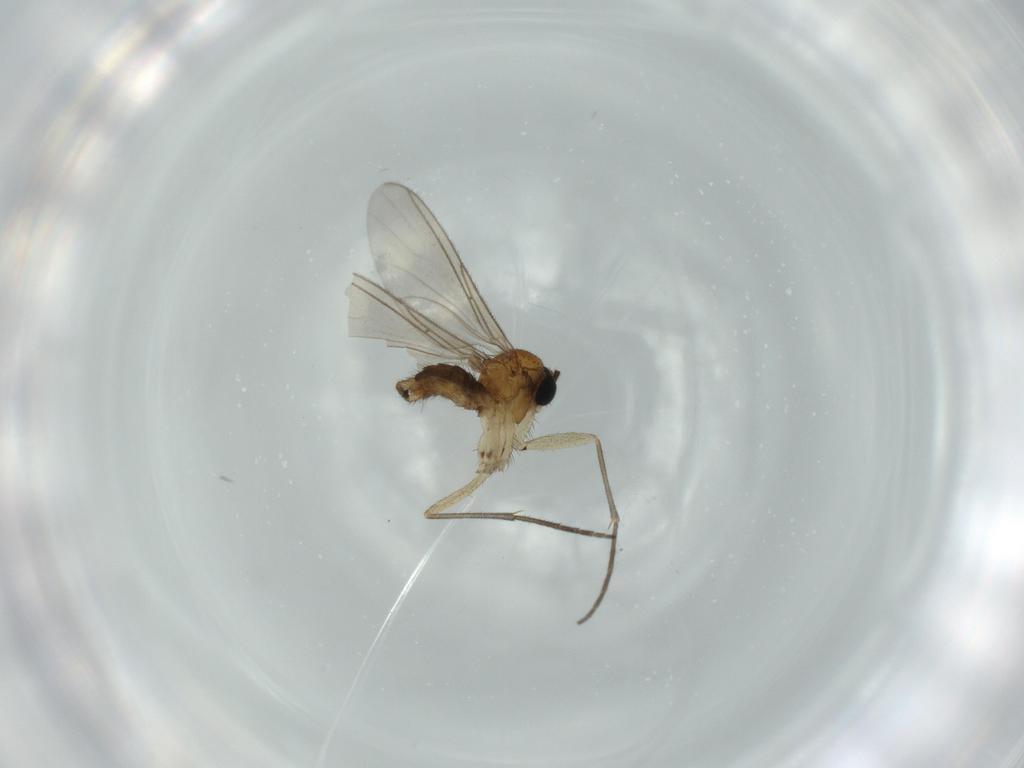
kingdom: Animalia
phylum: Arthropoda
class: Insecta
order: Diptera
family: Sciaridae
